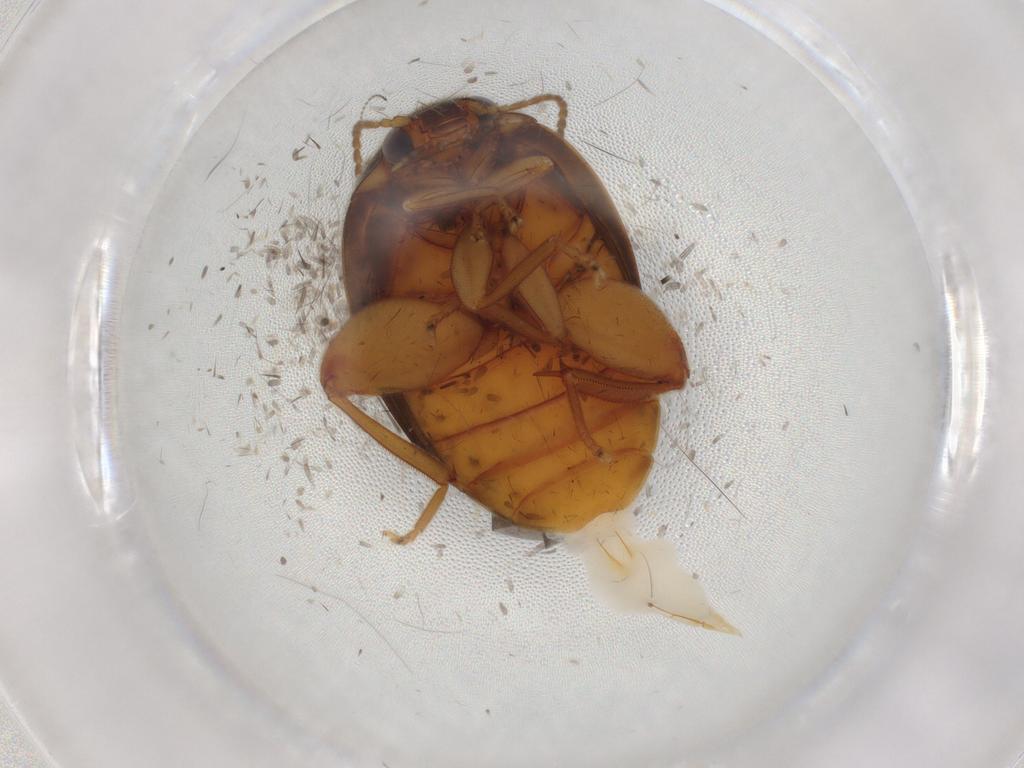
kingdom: Animalia
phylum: Arthropoda
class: Insecta
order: Coleoptera
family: Scirtidae
